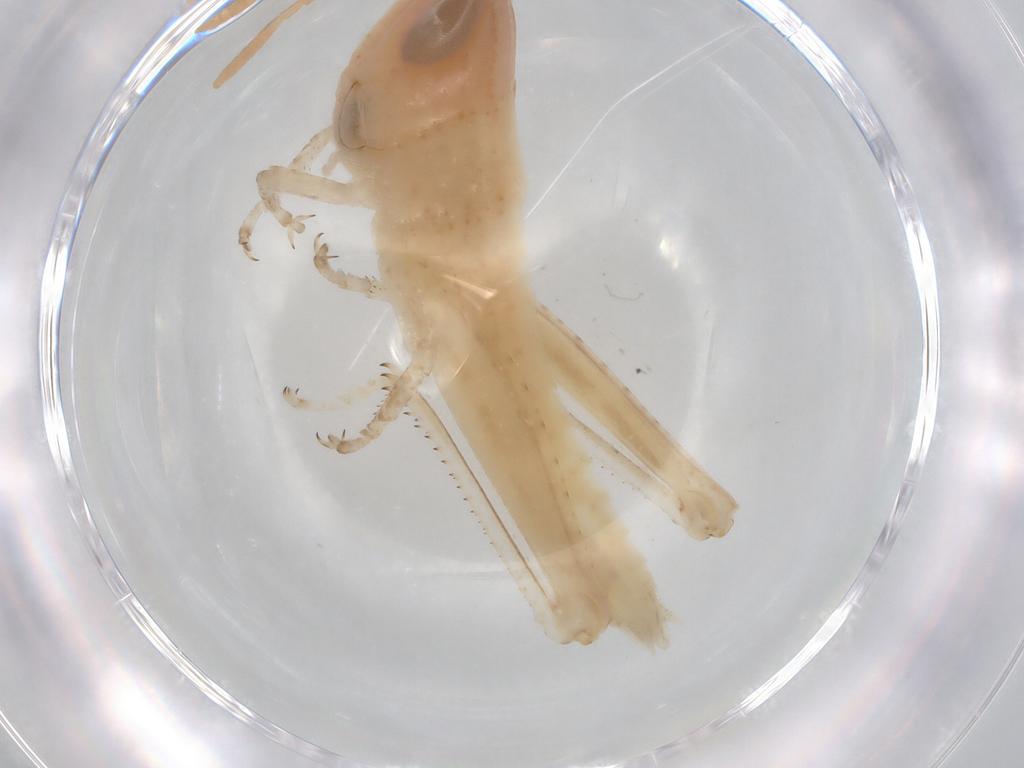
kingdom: Animalia
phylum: Arthropoda
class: Insecta
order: Orthoptera
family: Acrididae
